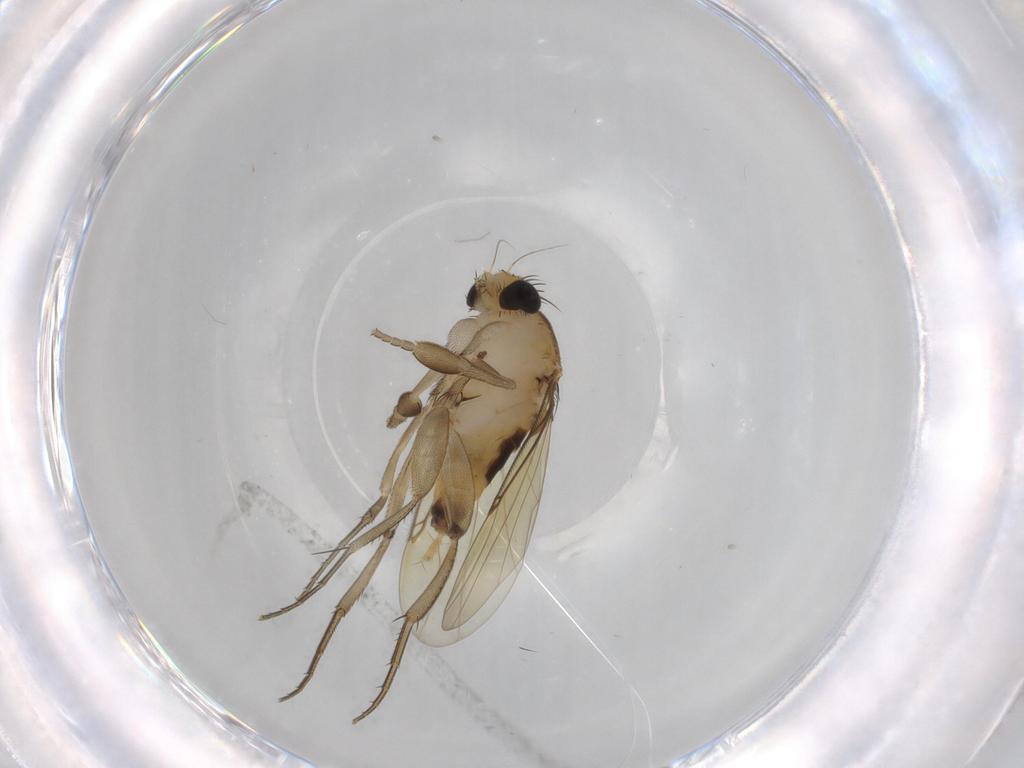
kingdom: Animalia
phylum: Arthropoda
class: Insecta
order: Diptera
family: Phoridae
